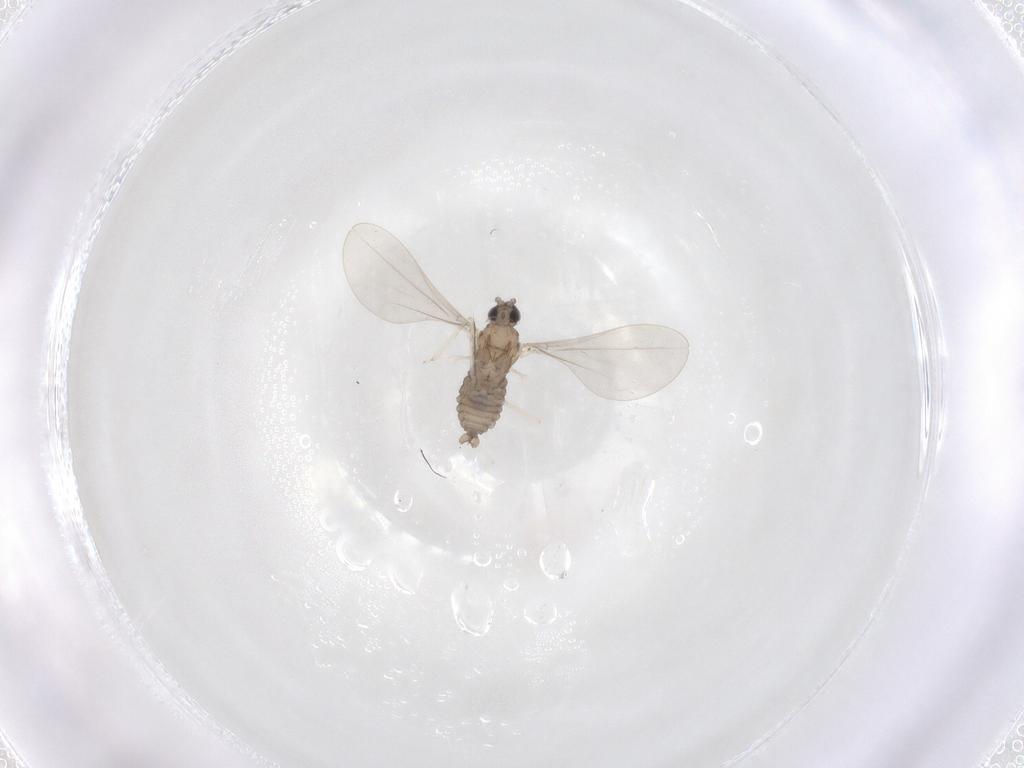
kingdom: Animalia
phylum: Arthropoda
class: Insecta
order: Diptera
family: Cecidomyiidae
